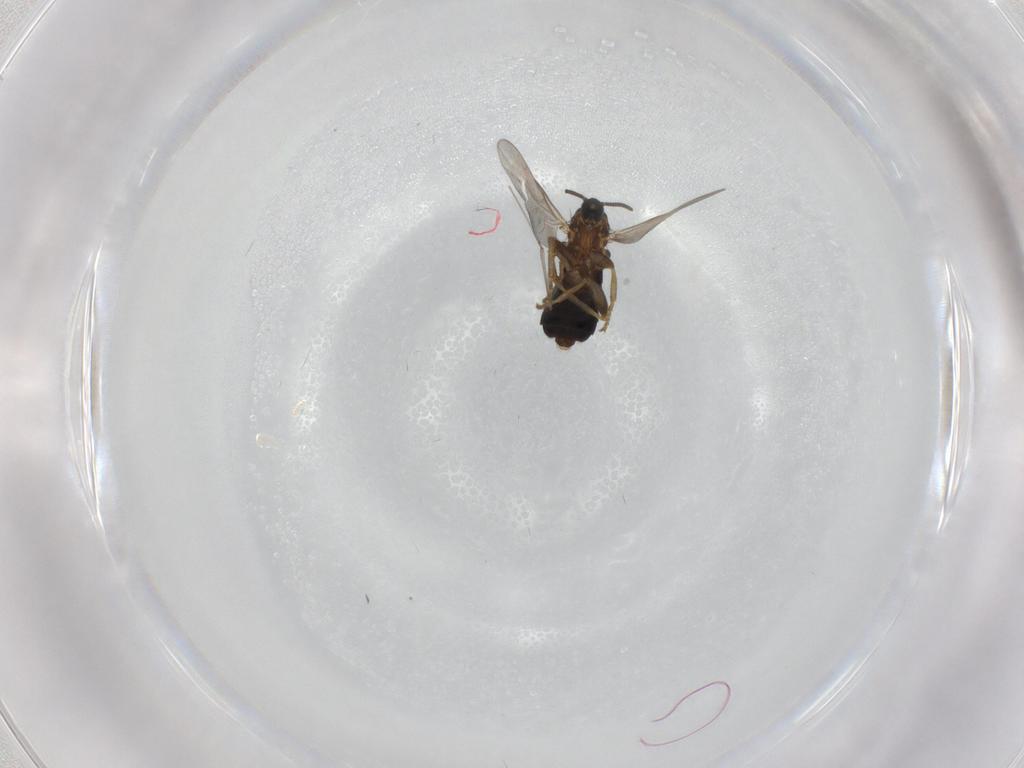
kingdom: Animalia
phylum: Arthropoda
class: Insecta
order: Diptera
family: Scatopsidae
